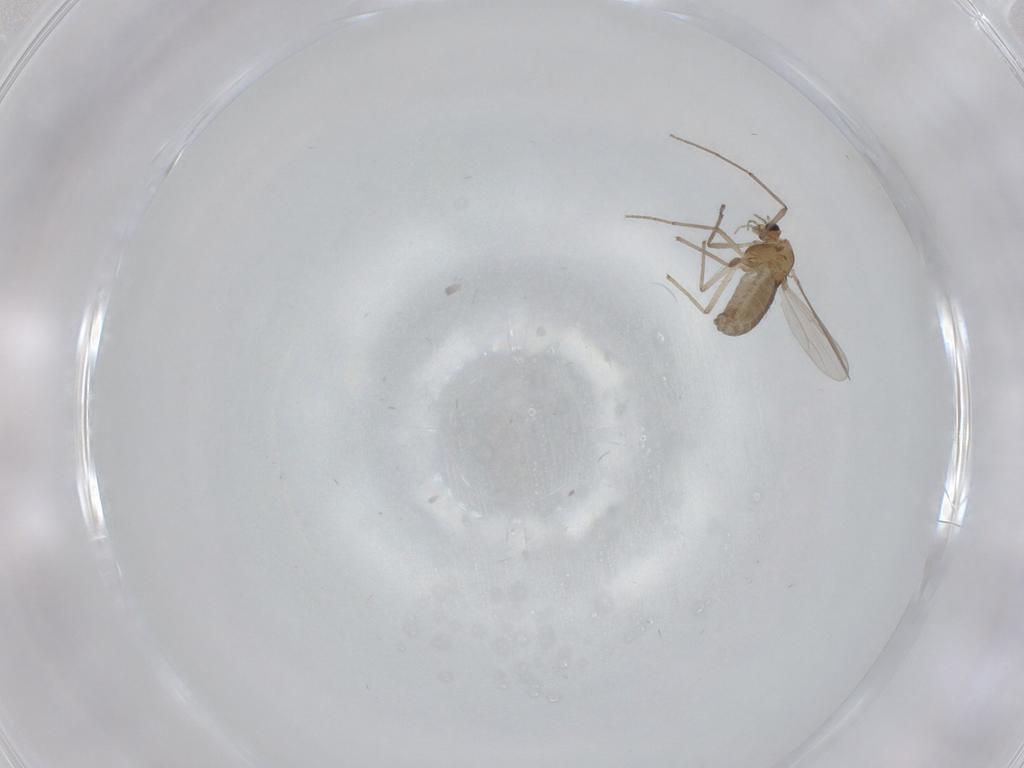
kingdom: Animalia
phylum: Arthropoda
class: Insecta
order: Diptera
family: Chironomidae
